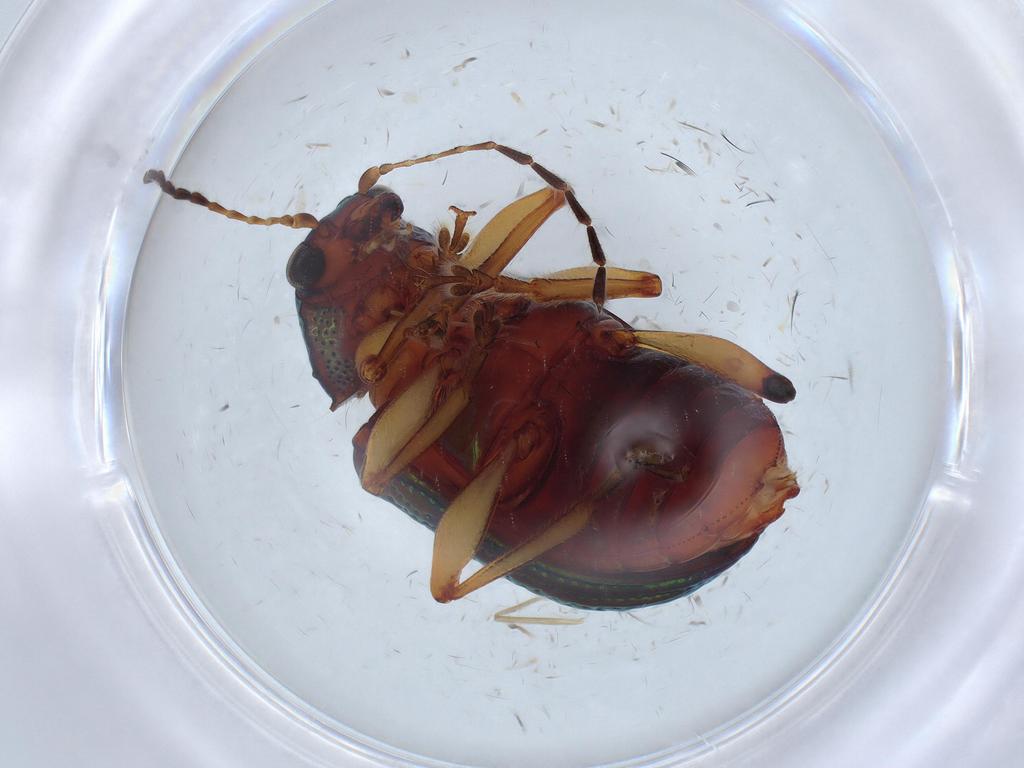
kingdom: Animalia
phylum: Arthropoda
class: Insecta
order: Coleoptera
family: Chrysomelidae
